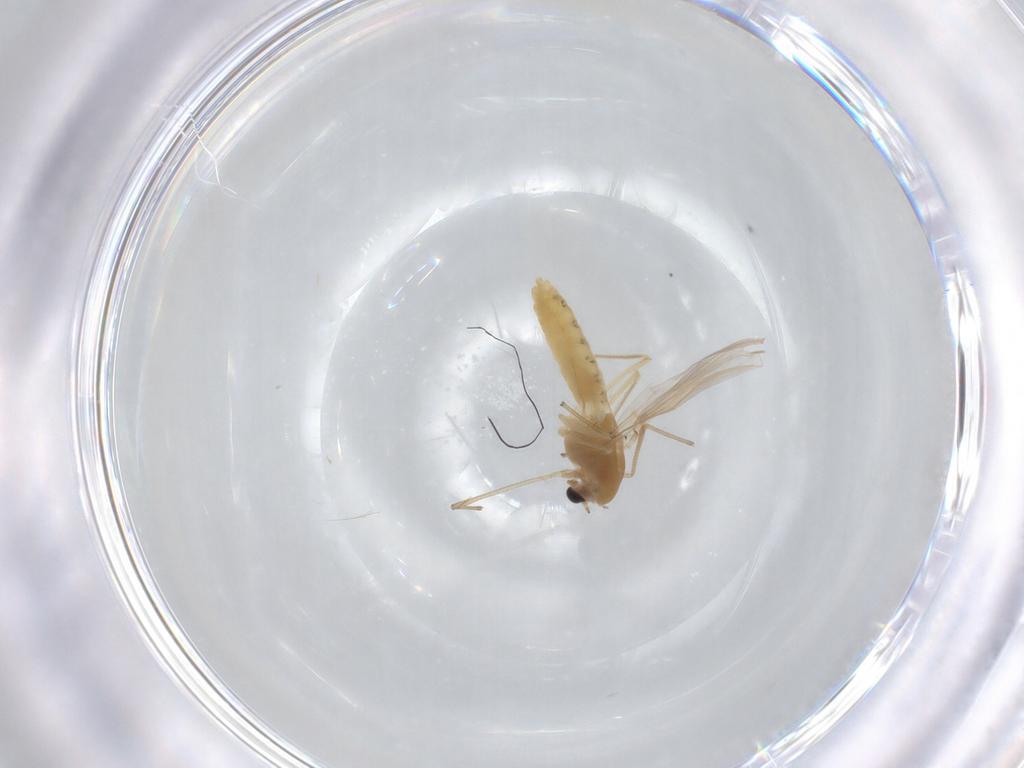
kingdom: Animalia
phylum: Arthropoda
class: Insecta
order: Diptera
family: Chironomidae
